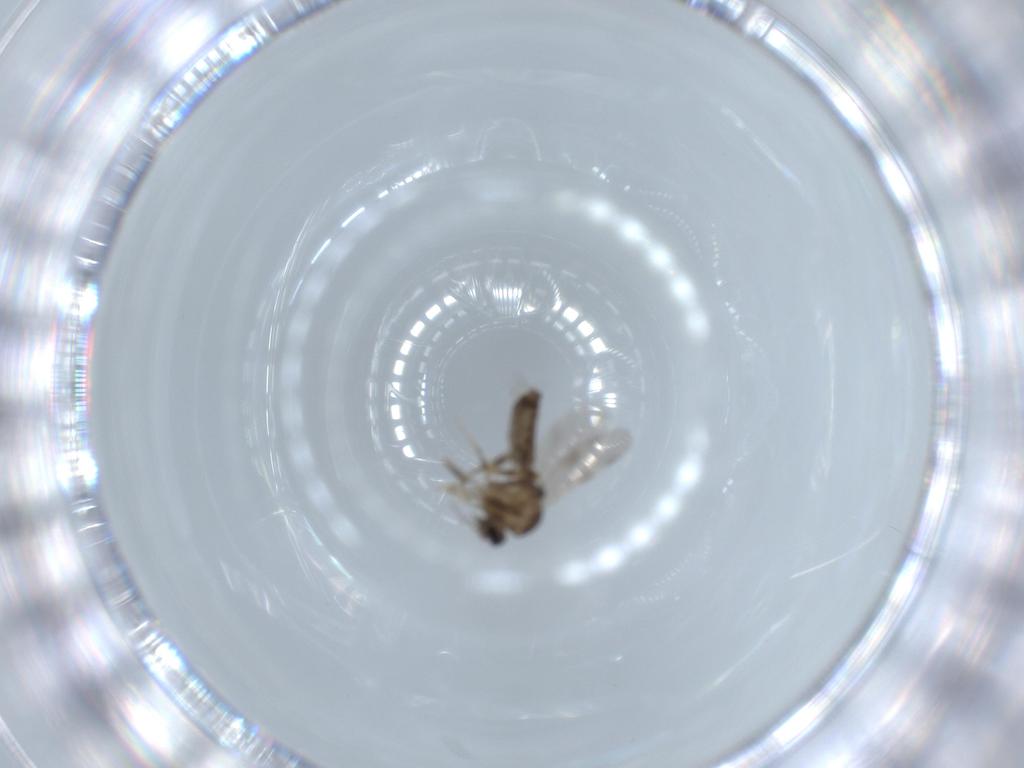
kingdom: Animalia
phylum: Arthropoda
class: Insecta
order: Diptera
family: Ceratopogonidae
